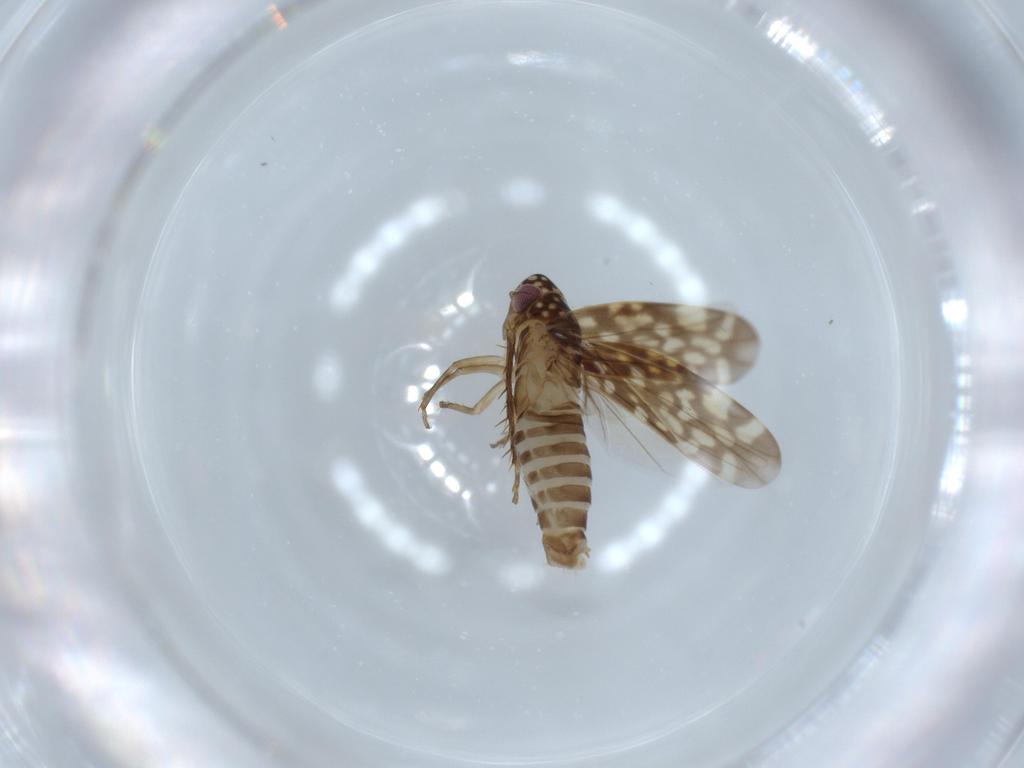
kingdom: Animalia
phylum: Arthropoda
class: Insecta
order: Hemiptera
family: Cicadellidae
